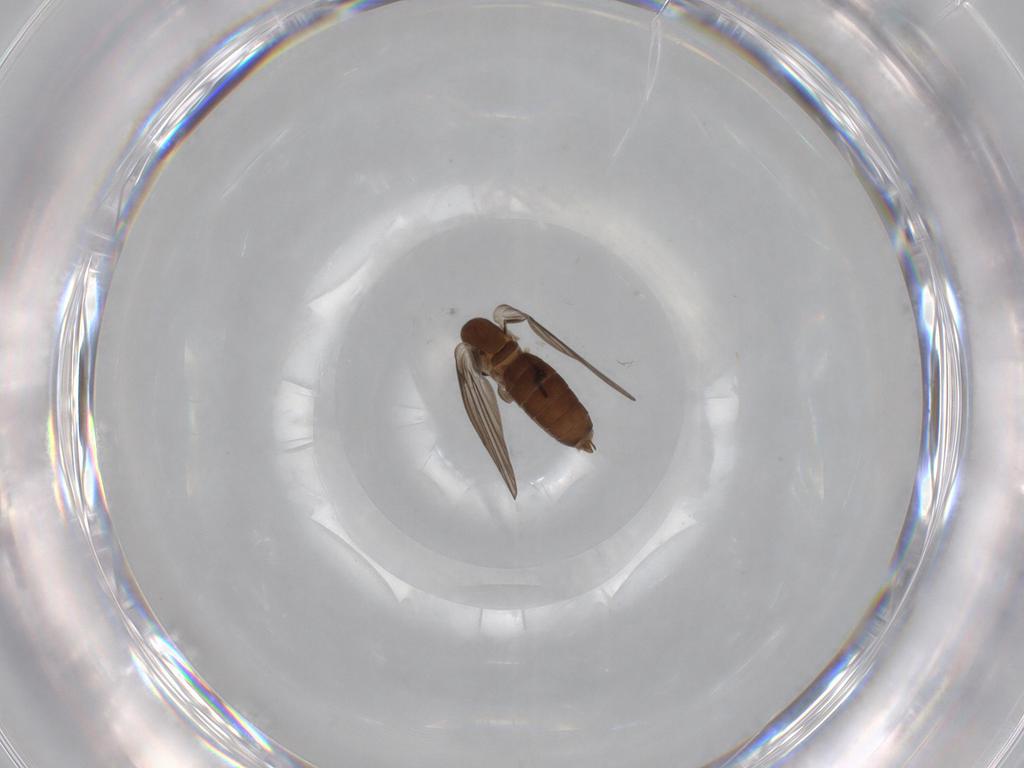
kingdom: Animalia
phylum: Arthropoda
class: Insecta
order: Diptera
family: Psychodidae
